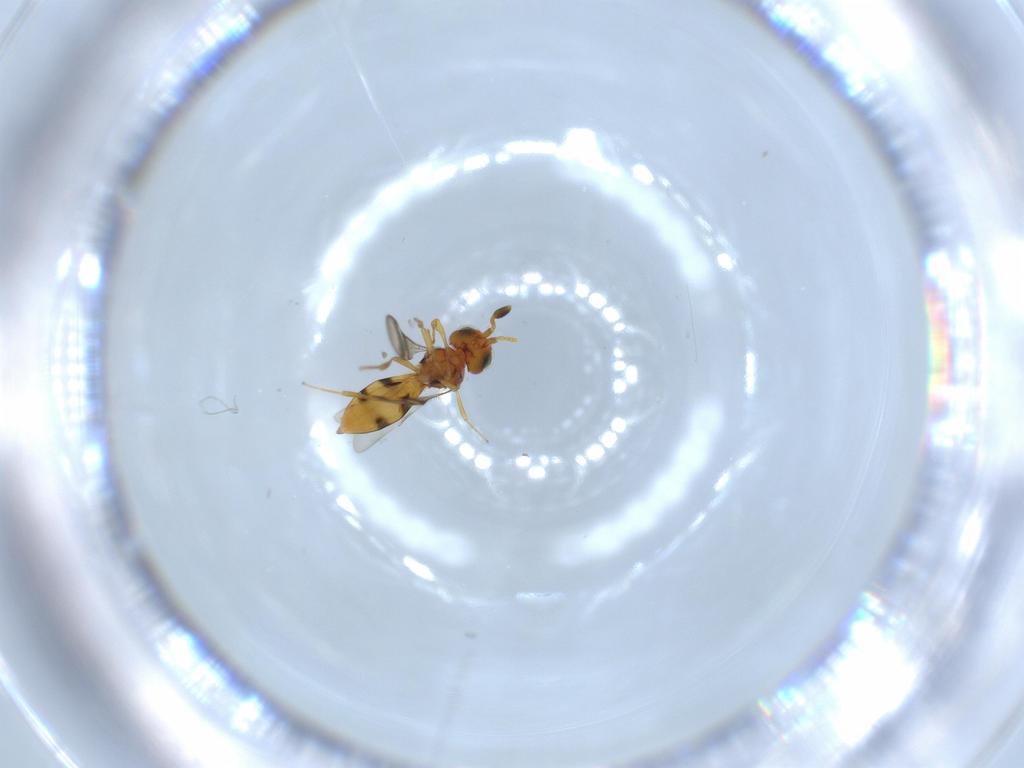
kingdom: Animalia
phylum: Arthropoda
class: Insecta
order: Hymenoptera
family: Scelionidae
